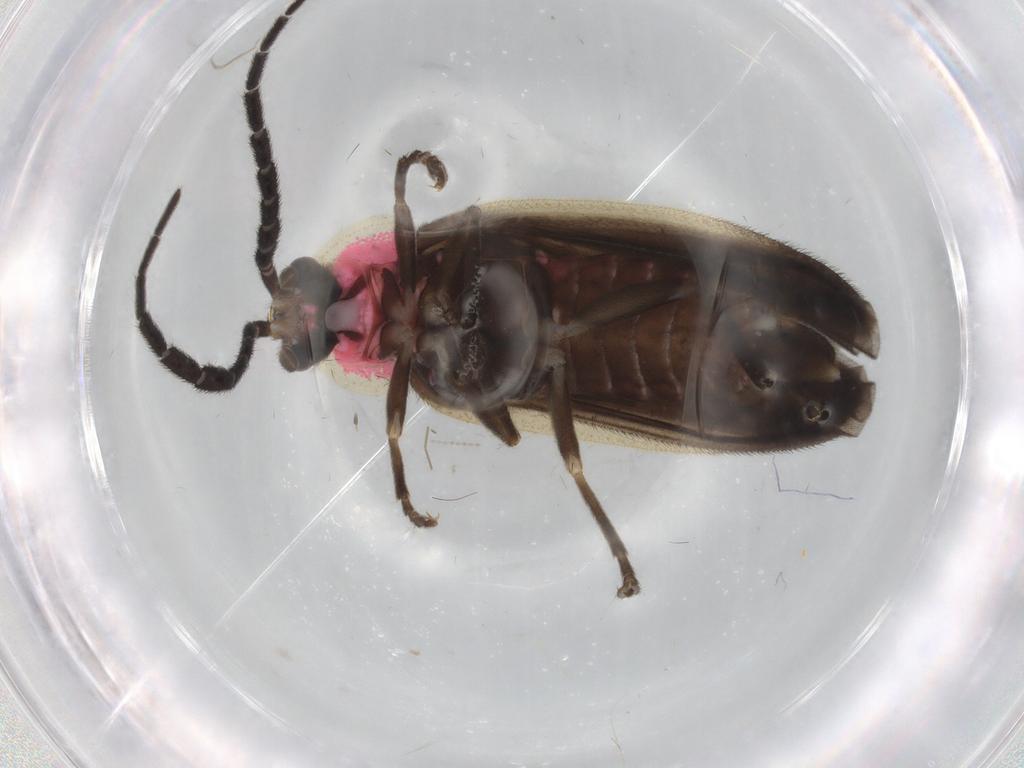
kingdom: Animalia
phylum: Arthropoda
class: Insecta
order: Coleoptera
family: Lampyridae
